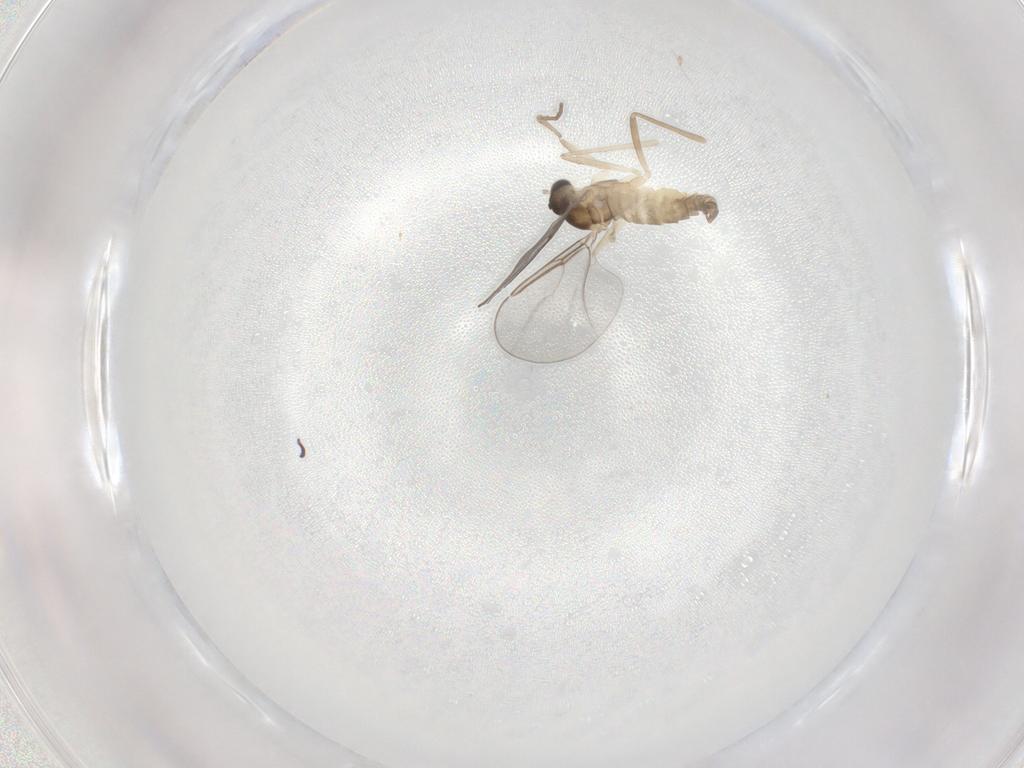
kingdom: Animalia
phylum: Arthropoda
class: Insecta
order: Diptera
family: Cecidomyiidae
